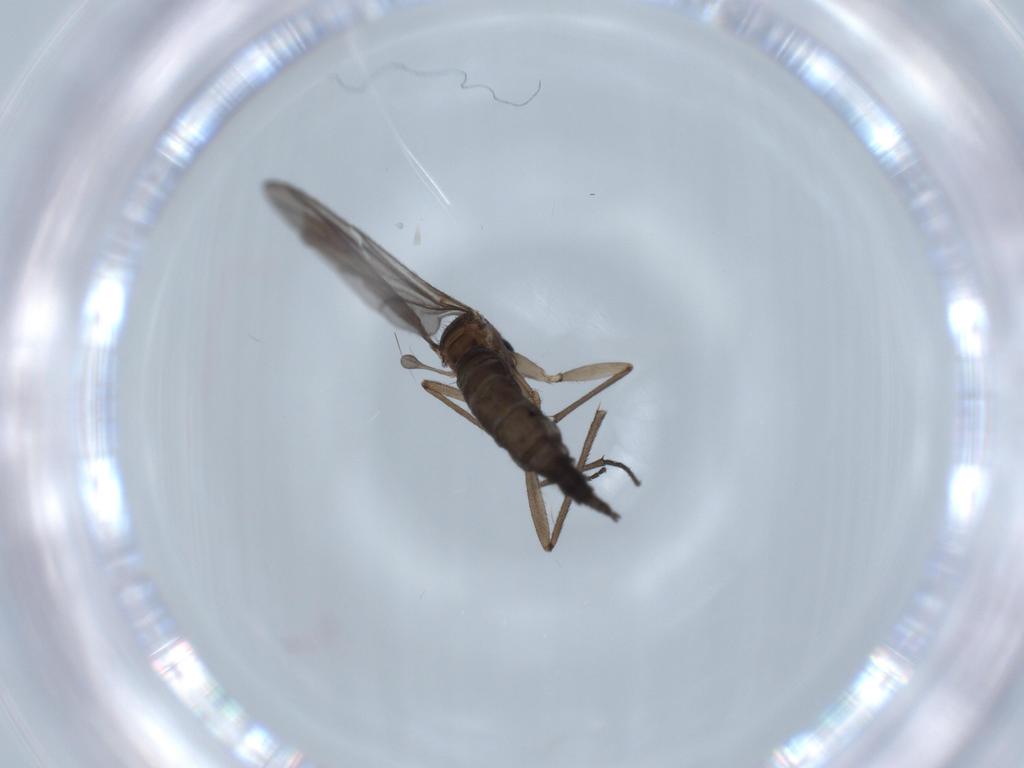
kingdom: Animalia
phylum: Arthropoda
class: Insecta
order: Diptera
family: Sciaridae
